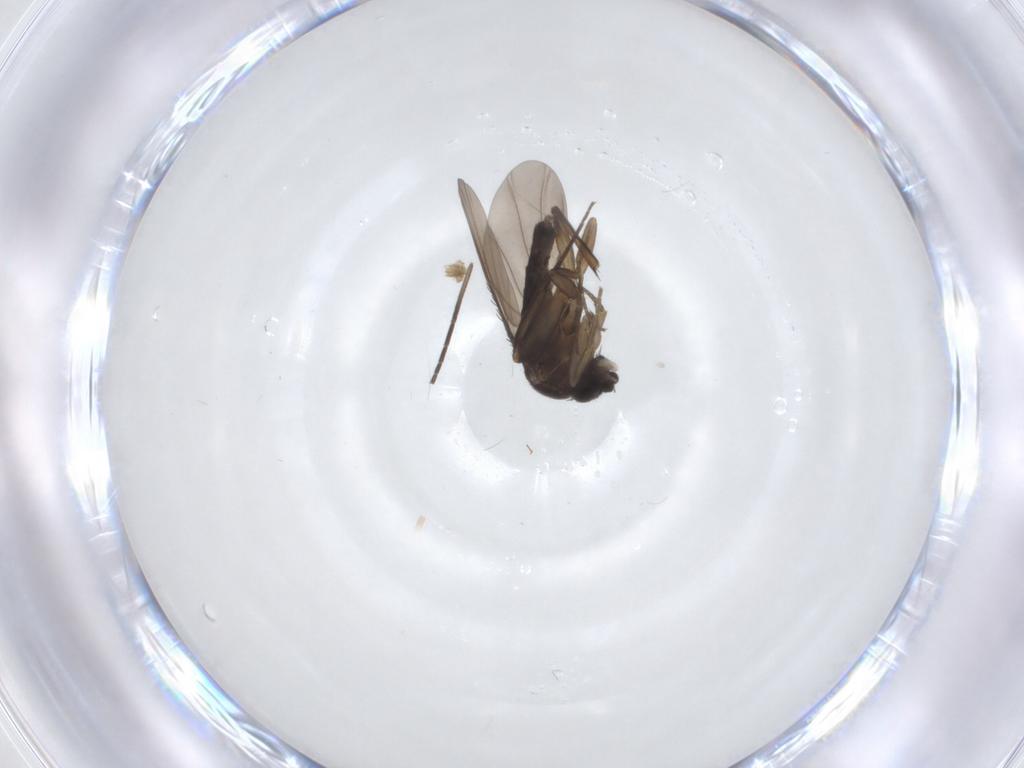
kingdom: Animalia
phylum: Arthropoda
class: Insecta
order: Diptera
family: Phoridae
